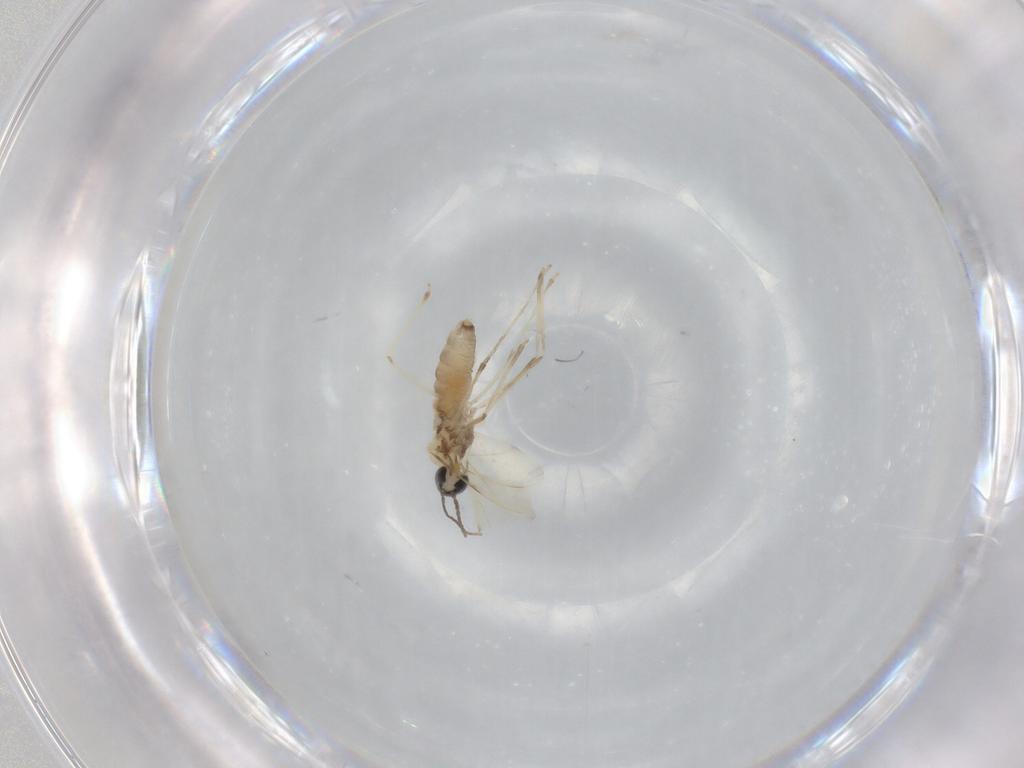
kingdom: Animalia
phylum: Arthropoda
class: Insecta
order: Diptera
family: Cecidomyiidae
